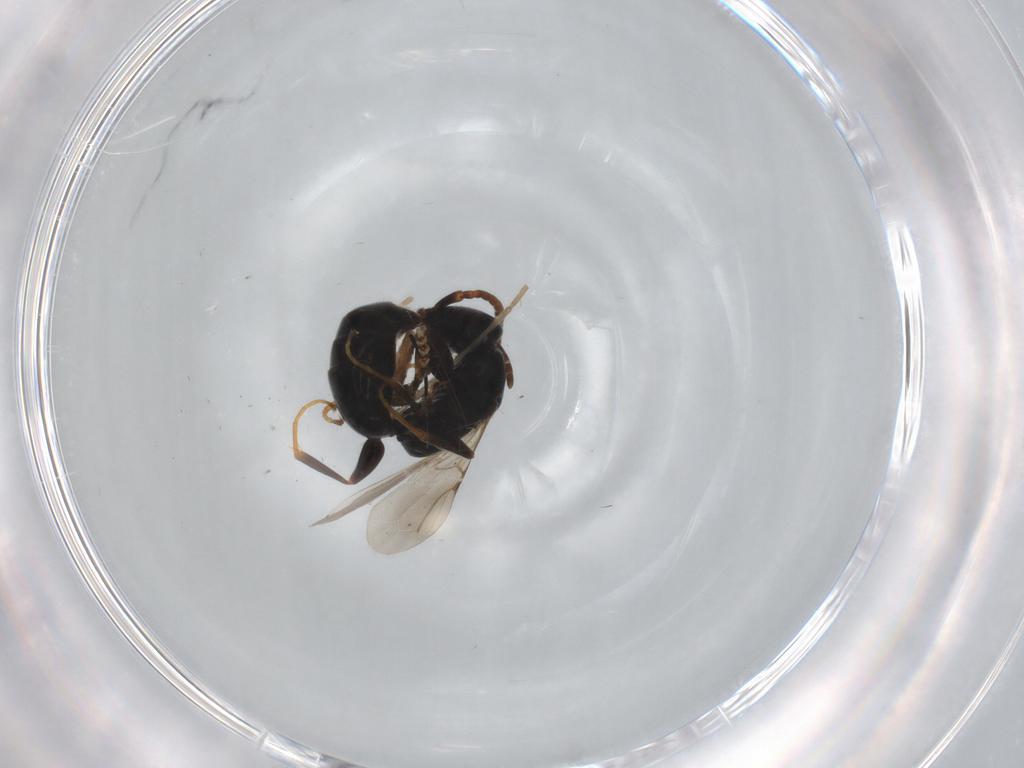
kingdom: Animalia
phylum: Arthropoda
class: Insecta
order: Hymenoptera
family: Bethylidae
